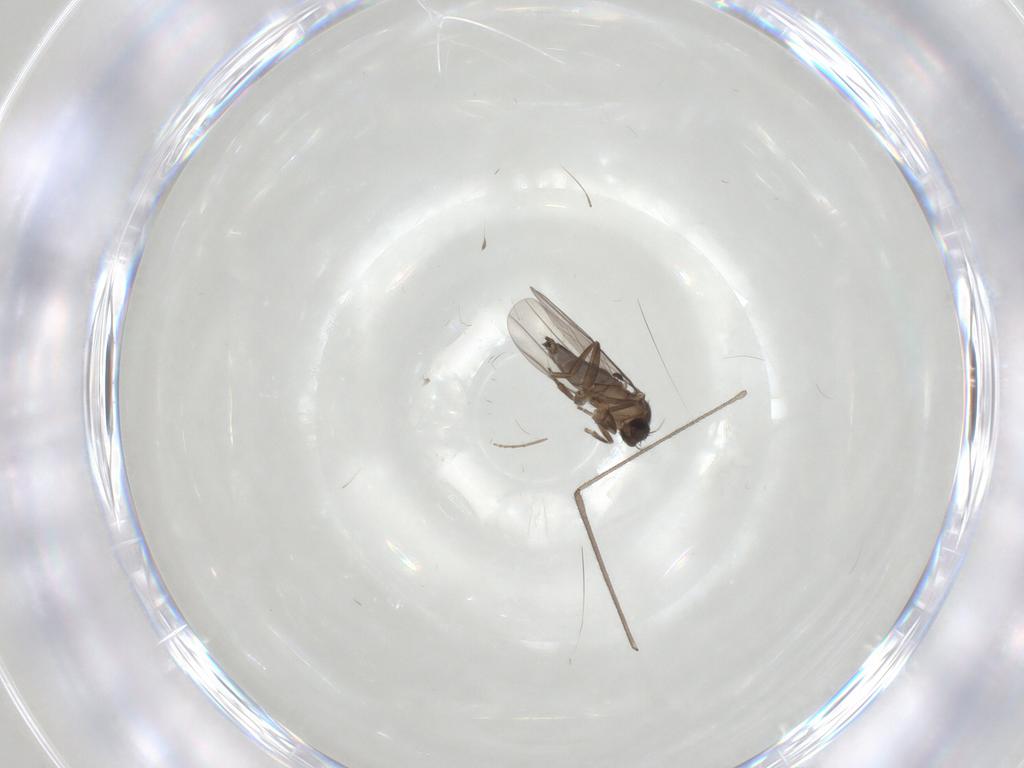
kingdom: Animalia
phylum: Arthropoda
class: Insecta
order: Diptera
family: Limoniidae
